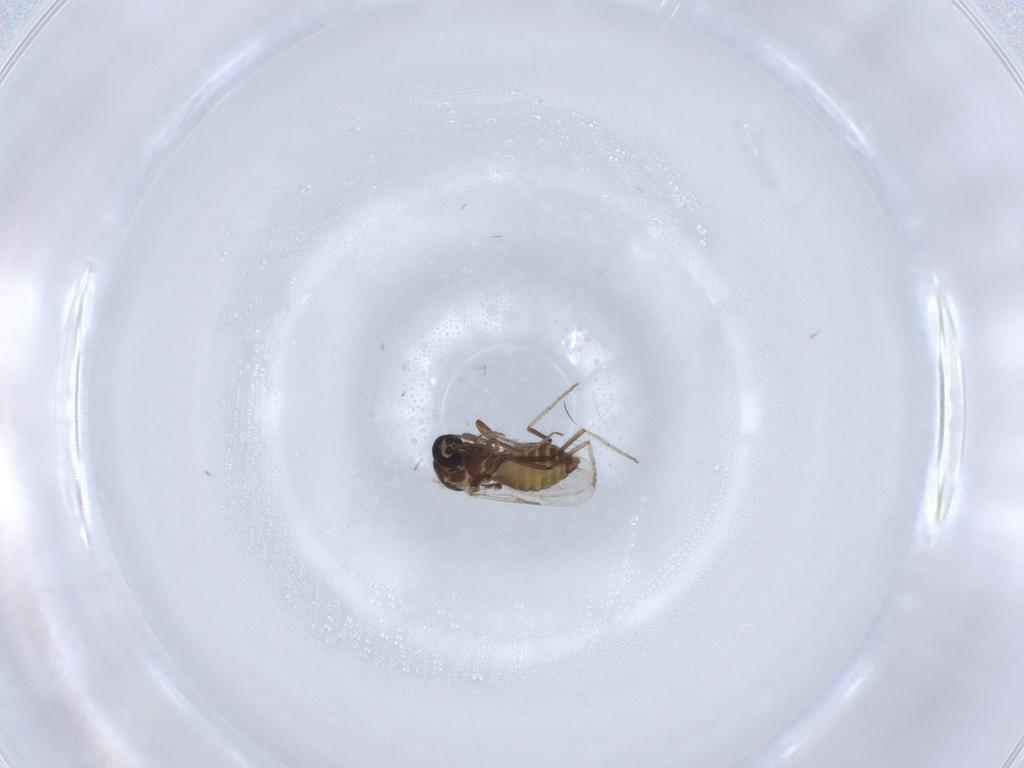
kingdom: Animalia
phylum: Arthropoda
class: Insecta
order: Diptera
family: Ceratopogonidae
